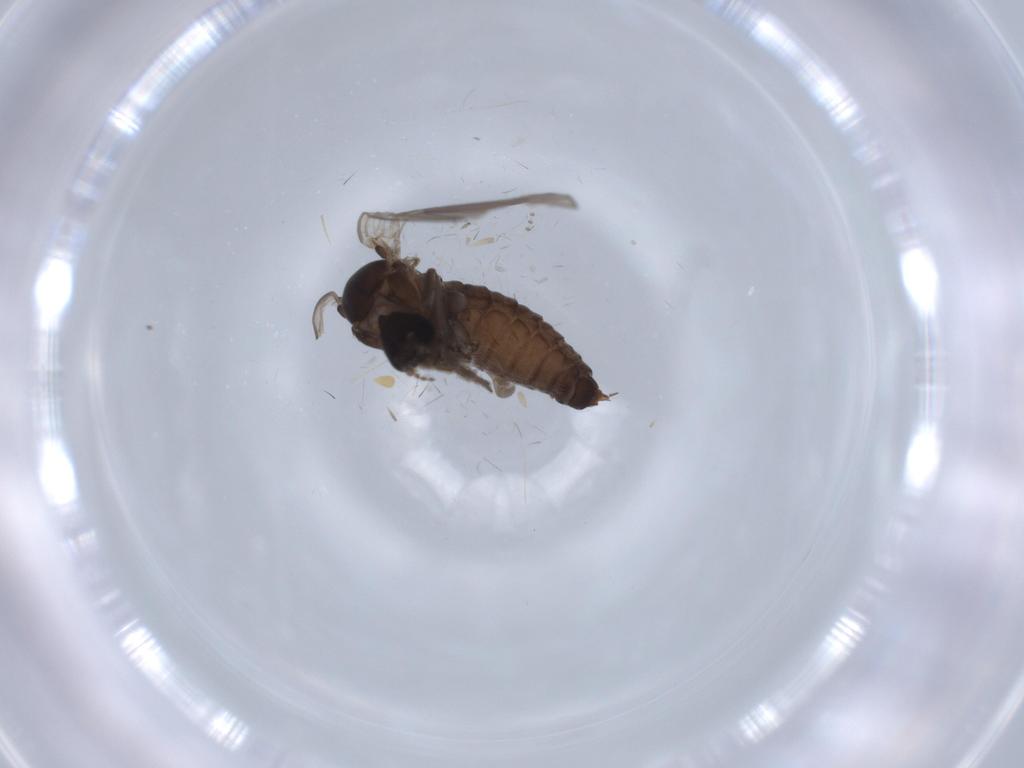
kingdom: Animalia
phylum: Arthropoda
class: Insecta
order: Diptera
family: Psychodidae
